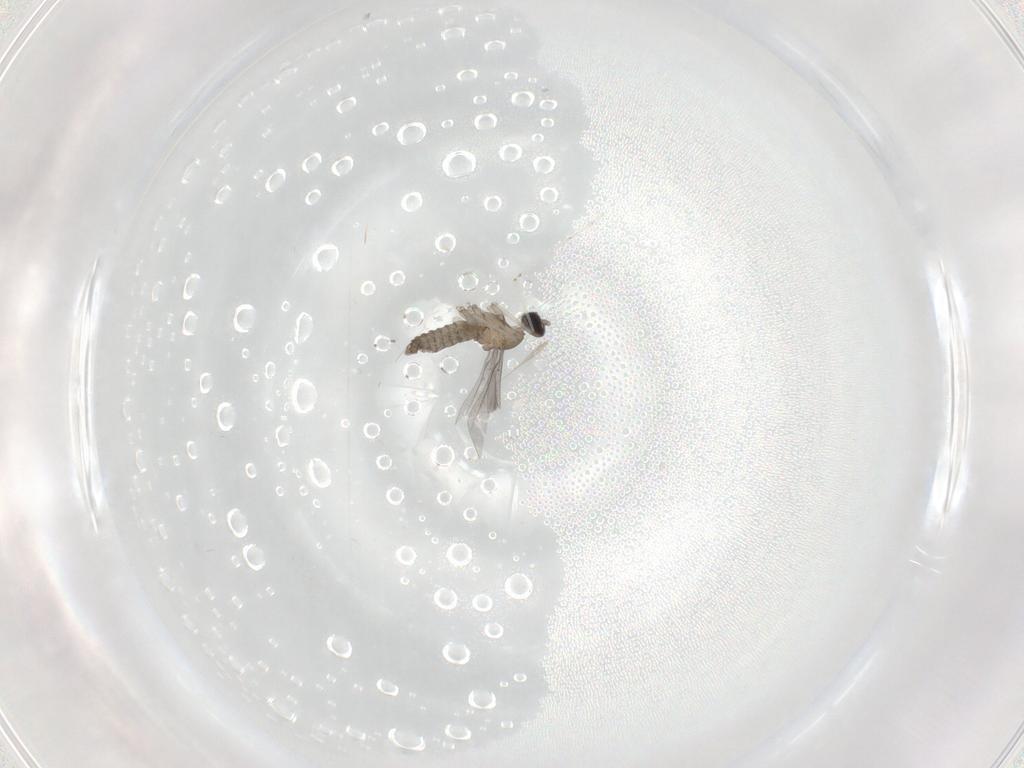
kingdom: Animalia
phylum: Arthropoda
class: Insecta
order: Diptera
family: Cecidomyiidae
